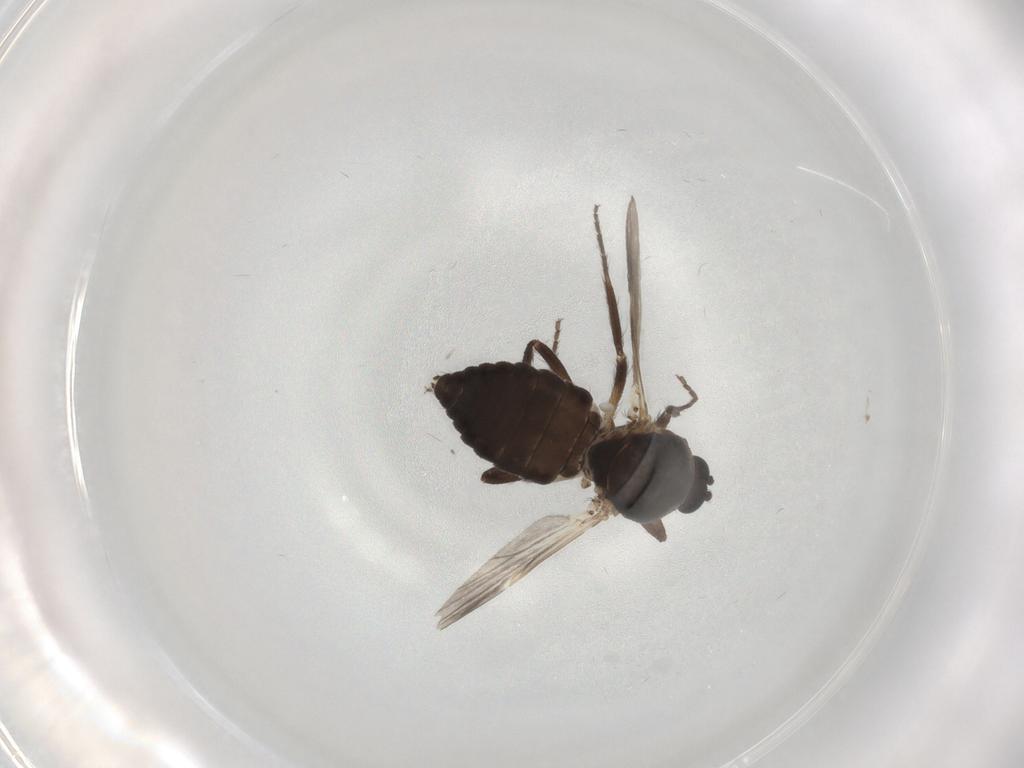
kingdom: Animalia
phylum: Arthropoda
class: Insecta
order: Diptera
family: Ceratopogonidae
